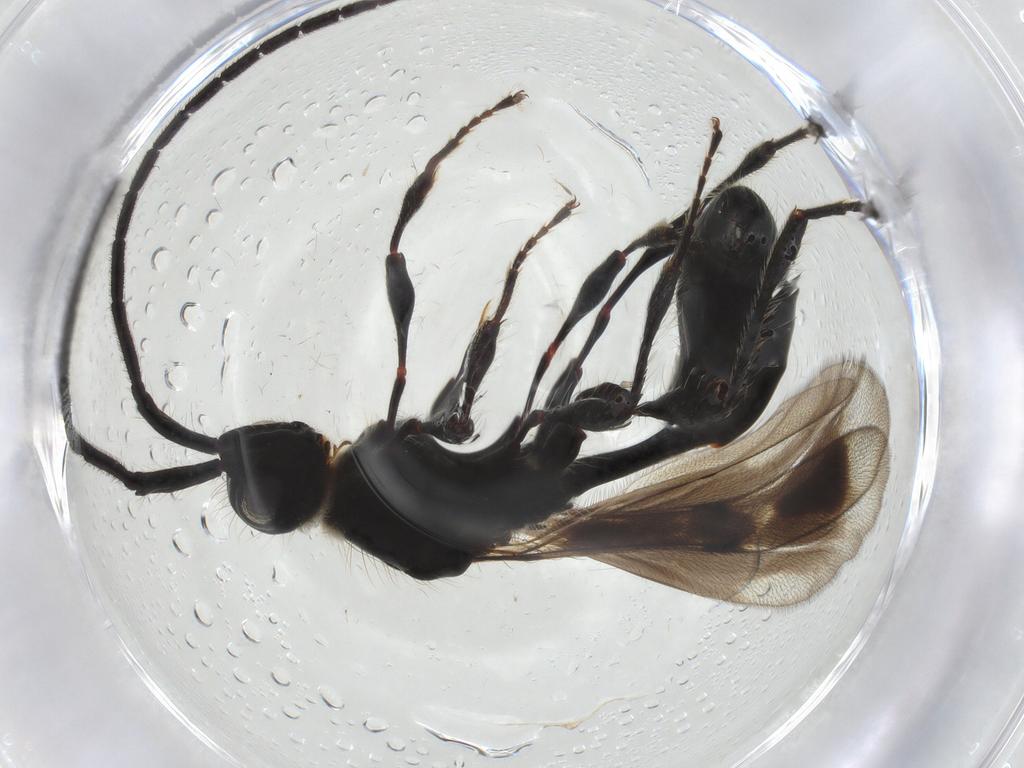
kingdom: Animalia
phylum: Arthropoda
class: Insecta
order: Hymenoptera
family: Diapriidae
